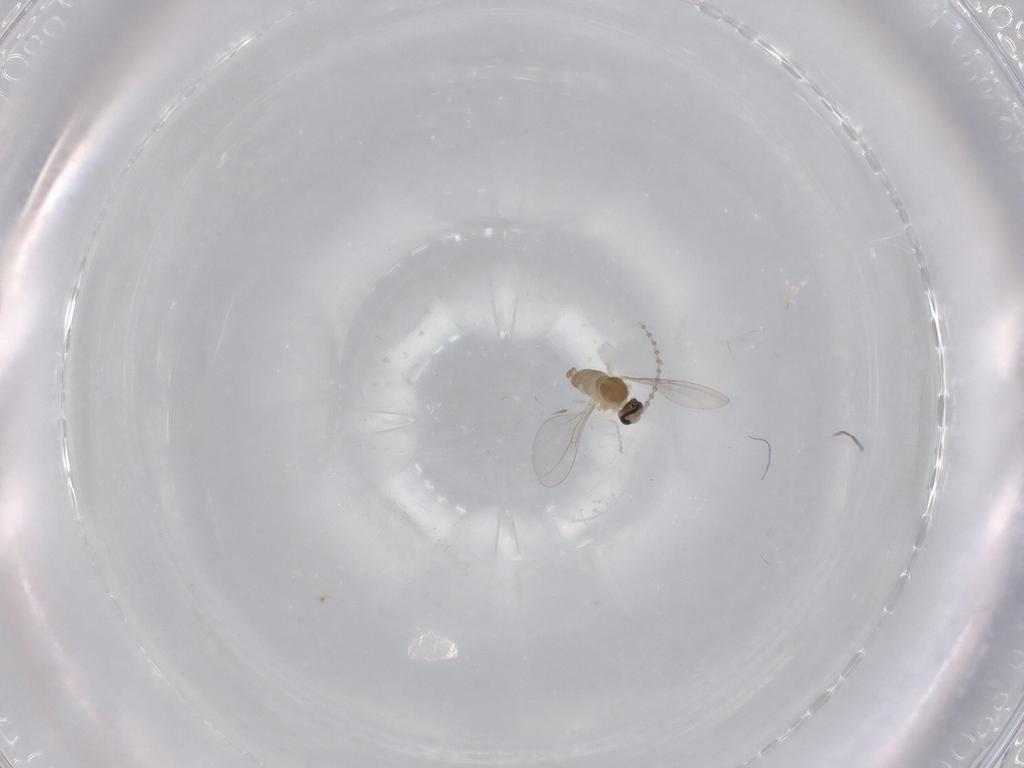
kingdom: Animalia
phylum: Arthropoda
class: Insecta
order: Diptera
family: Cecidomyiidae
